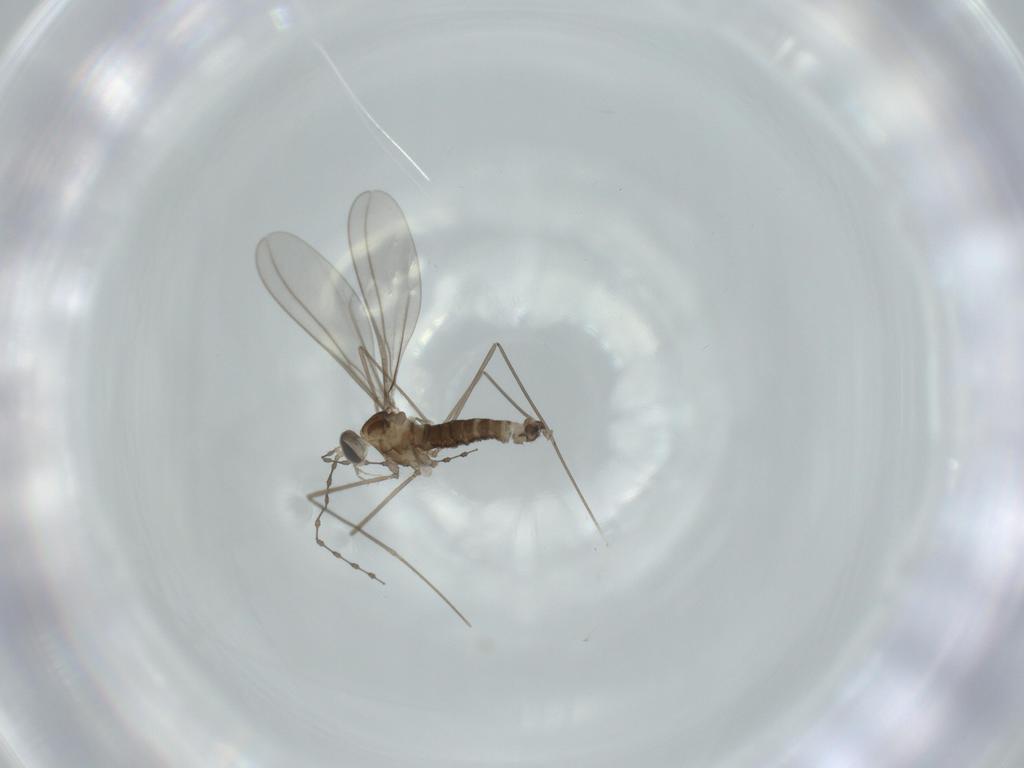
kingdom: Animalia
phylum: Arthropoda
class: Insecta
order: Diptera
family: Cecidomyiidae
